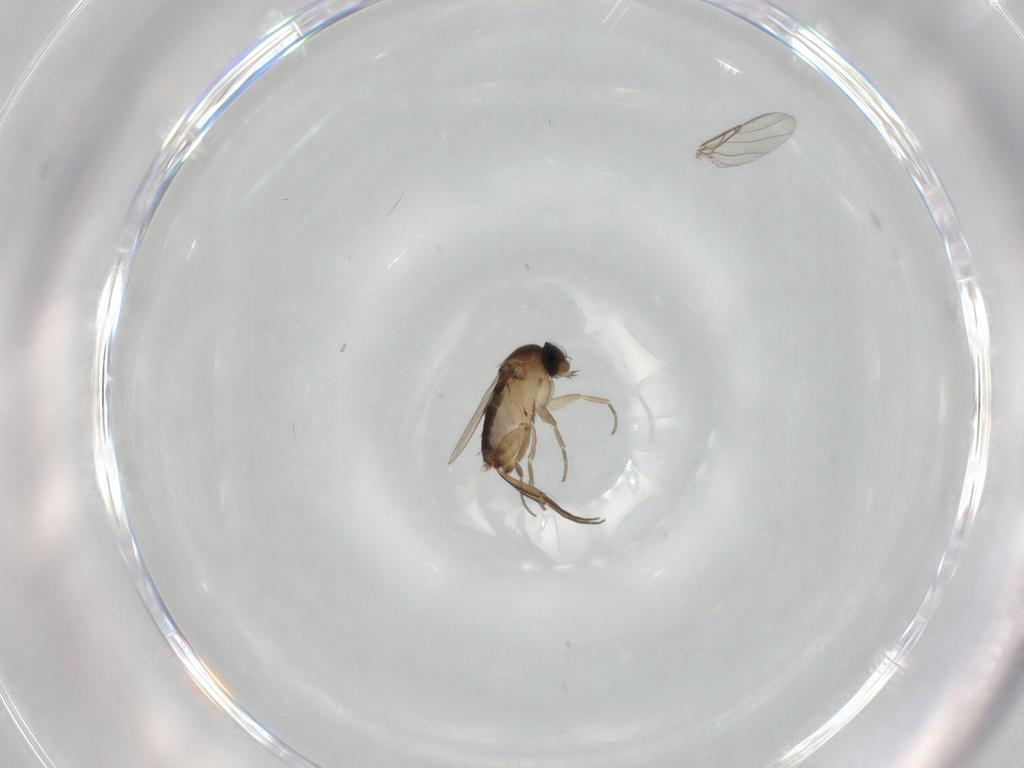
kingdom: Animalia
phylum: Arthropoda
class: Insecta
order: Diptera
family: Phoridae
